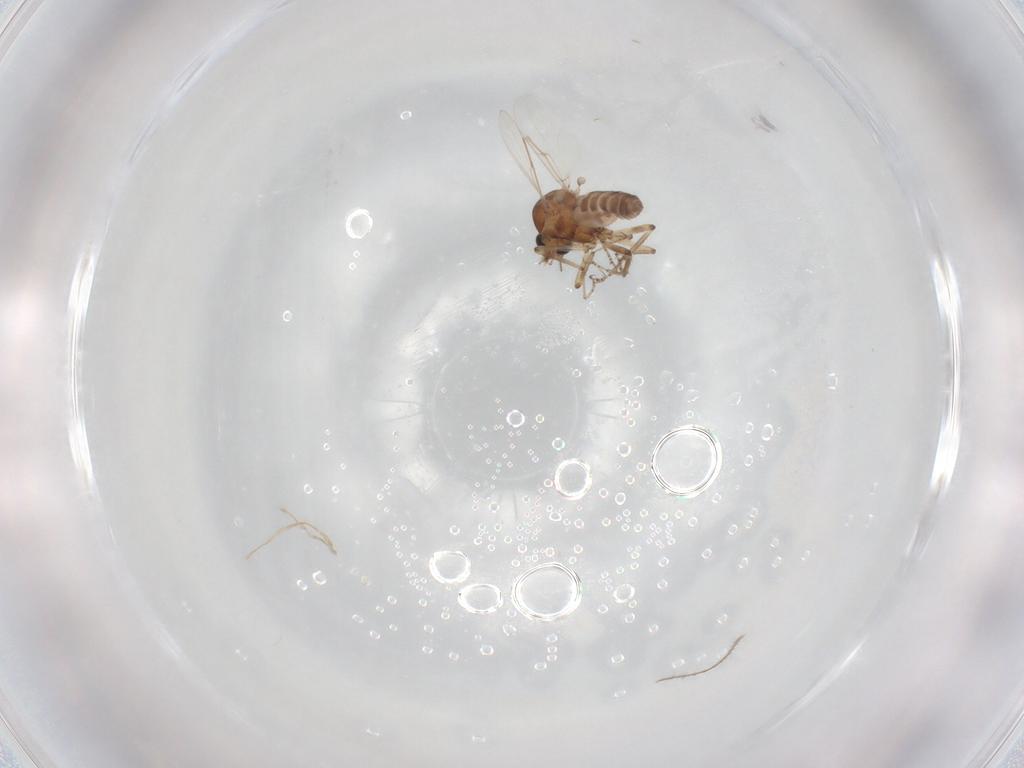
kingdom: Animalia
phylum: Arthropoda
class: Insecta
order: Diptera
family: Ceratopogonidae
